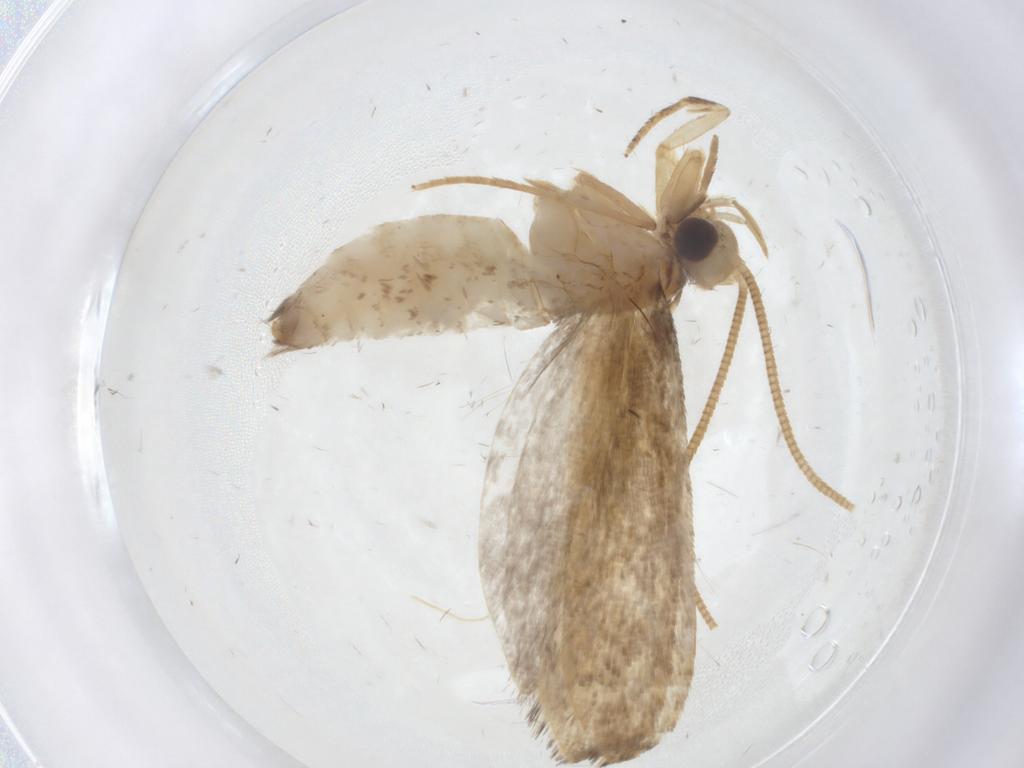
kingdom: Animalia
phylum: Arthropoda
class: Insecta
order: Lepidoptera
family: Tineidae
